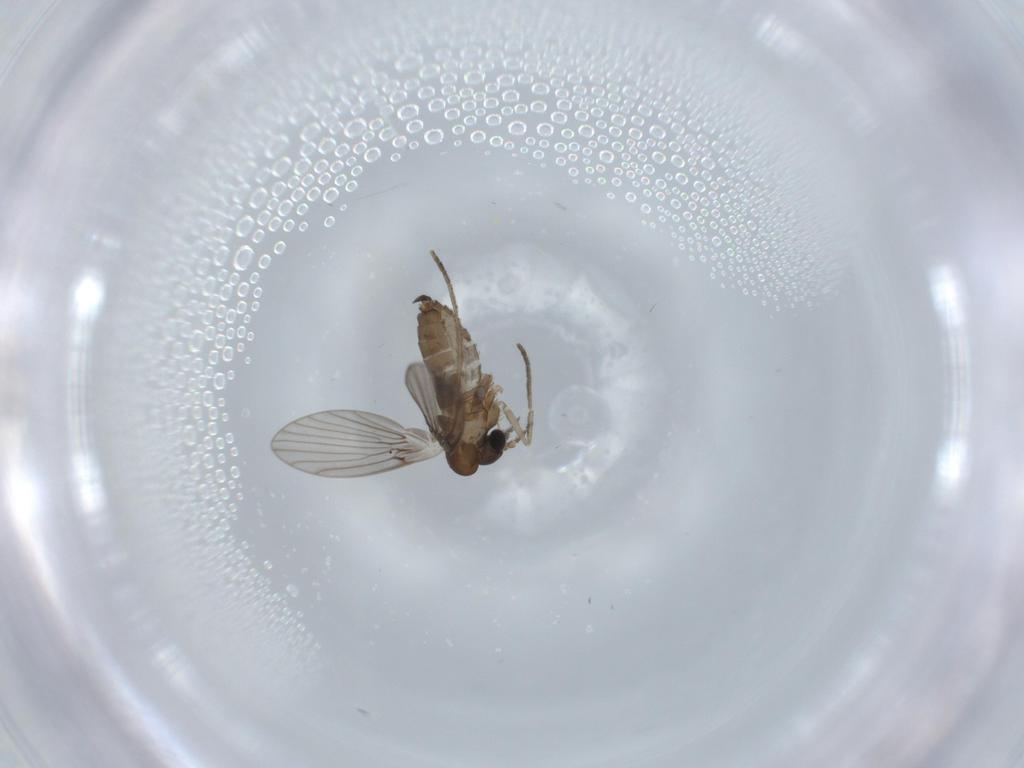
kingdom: Animalia
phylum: Arthropoda
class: Insecta
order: Diptera
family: Psychodidae
